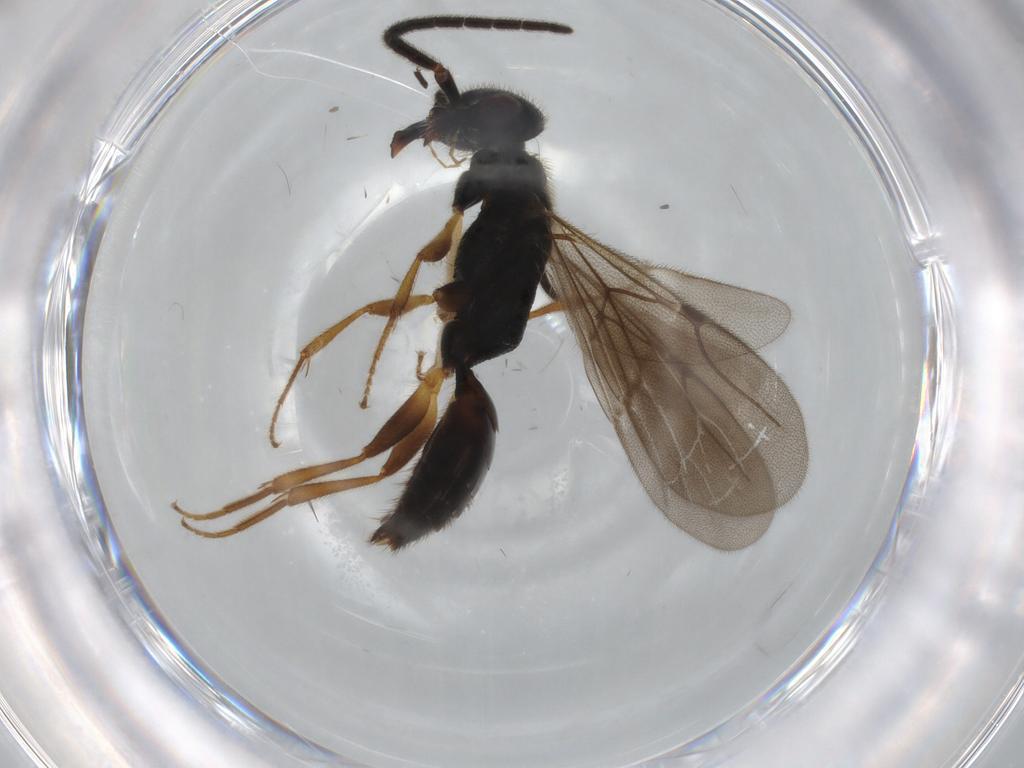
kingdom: Animalia
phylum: Arthropoda
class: Insecta
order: Hymenoptera
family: Bethylidae
